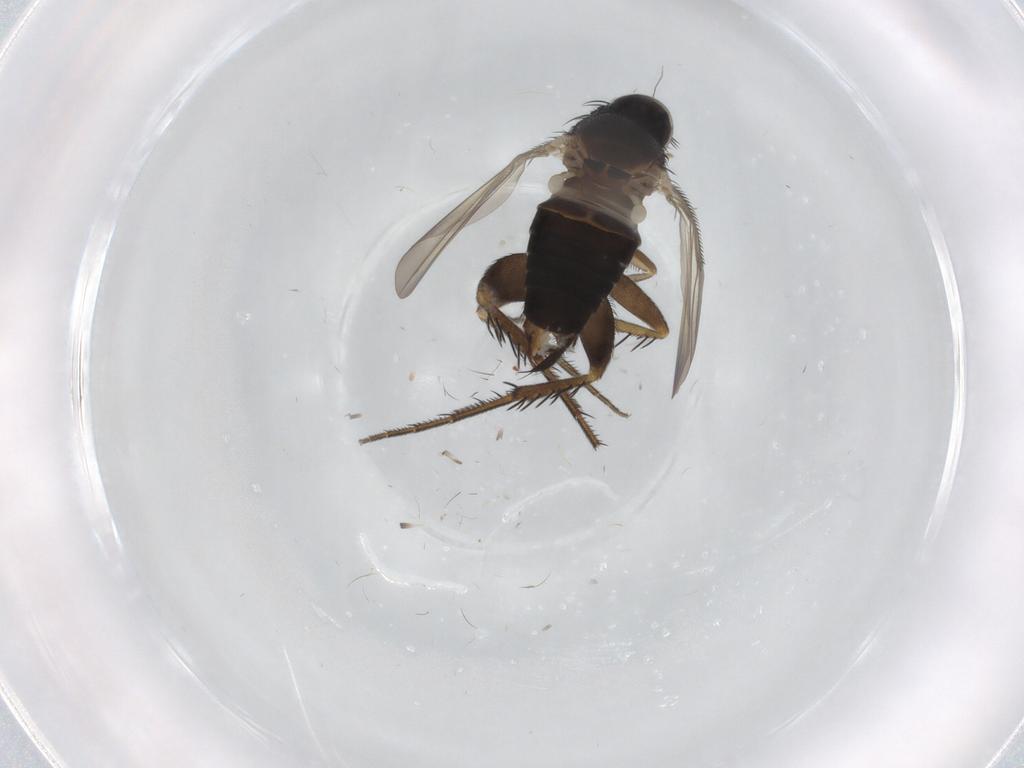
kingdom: Animalia
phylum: Arthropoda
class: Insecta
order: Diptera
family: Phoridae
